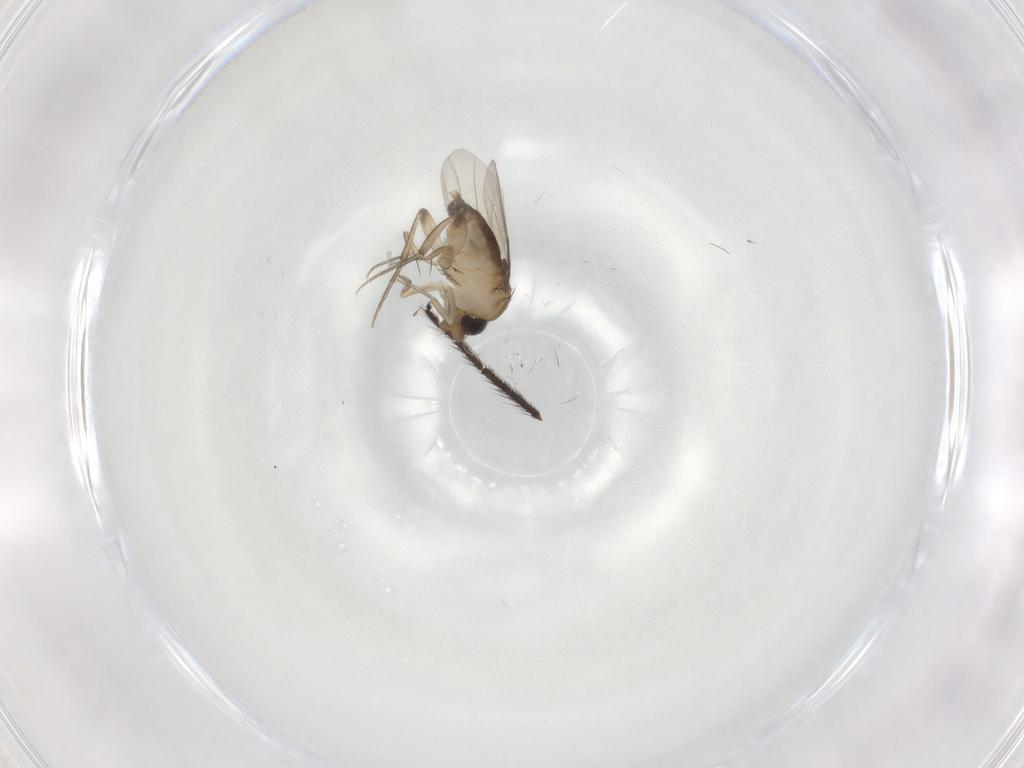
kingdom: Animalia
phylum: Arthropoda
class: Insecta
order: Diptera
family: Phoridae
